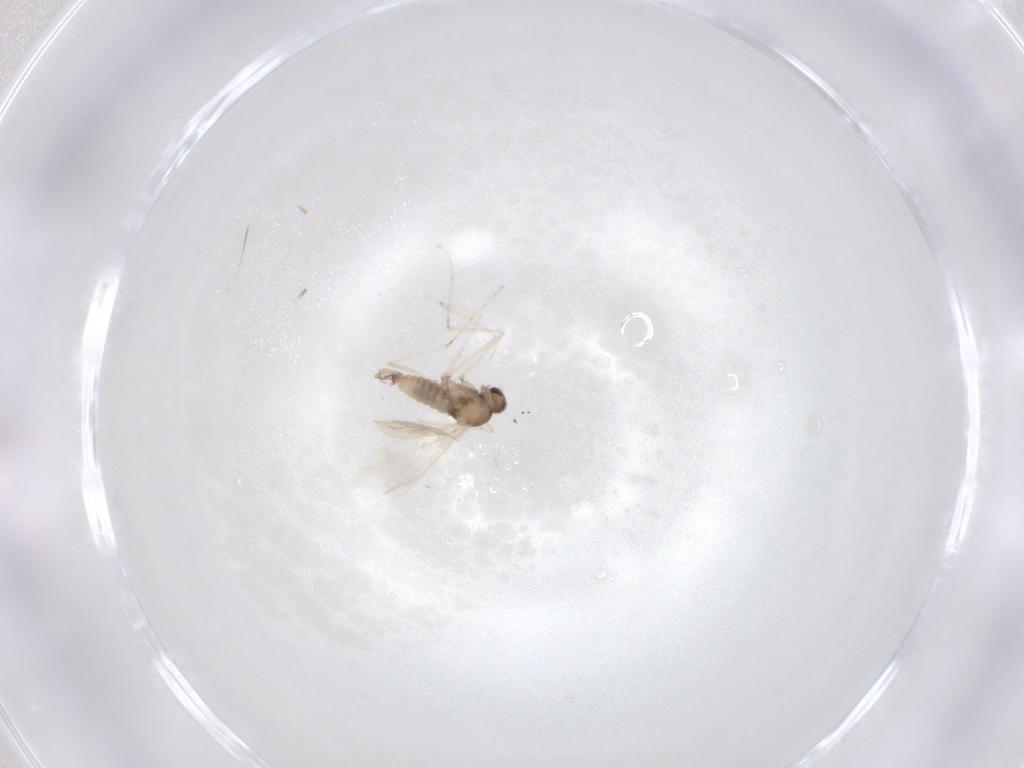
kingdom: Animalia
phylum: Arthropoda
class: Insecta
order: Diptera
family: Cecidomyiidae
